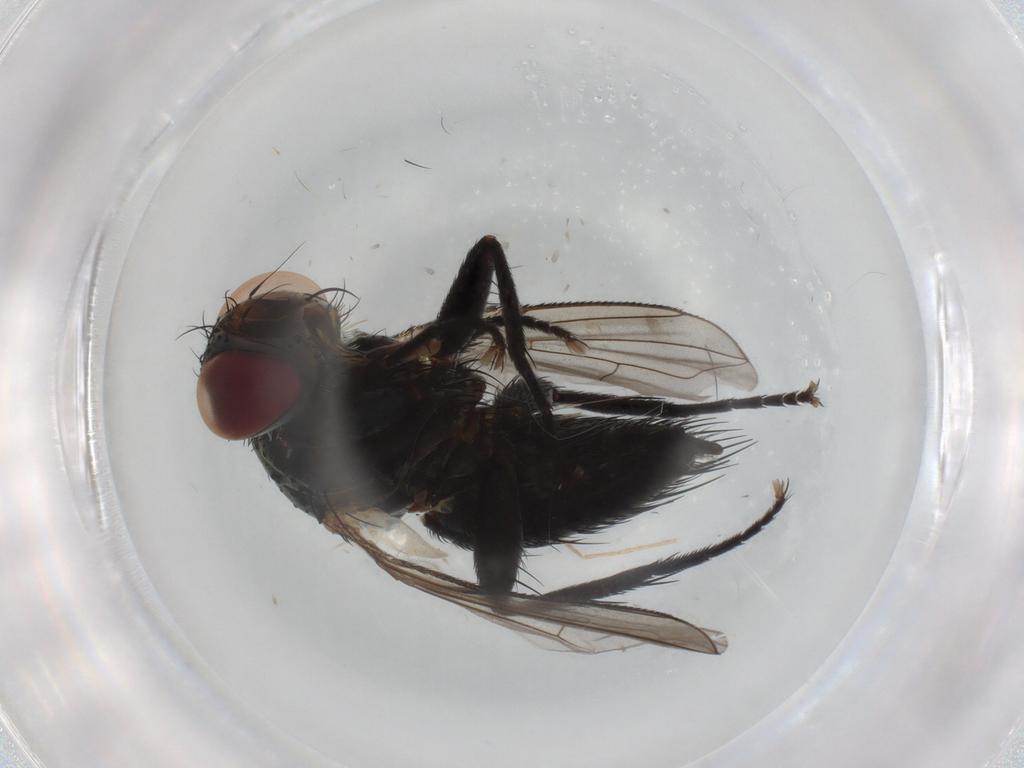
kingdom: Animalia
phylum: Arthropoda
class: Insecta
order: Diptera
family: Tachinidae
